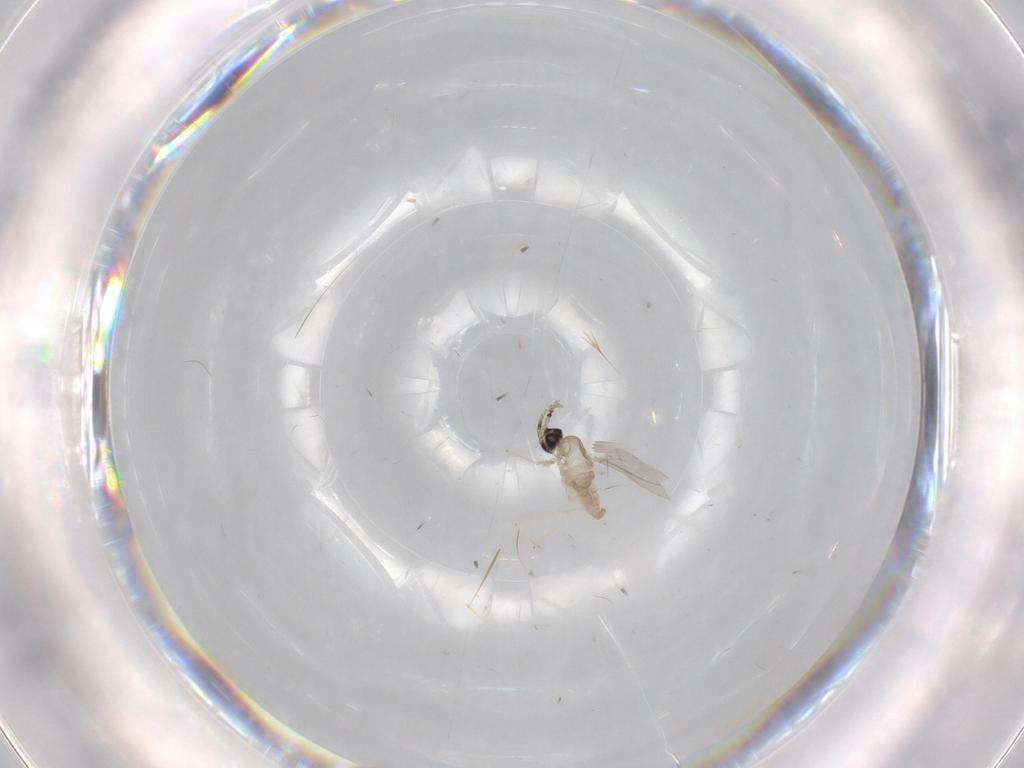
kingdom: Animalia
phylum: Arthropoda
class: Insecta
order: Diptera
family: Cecidomyiidae
